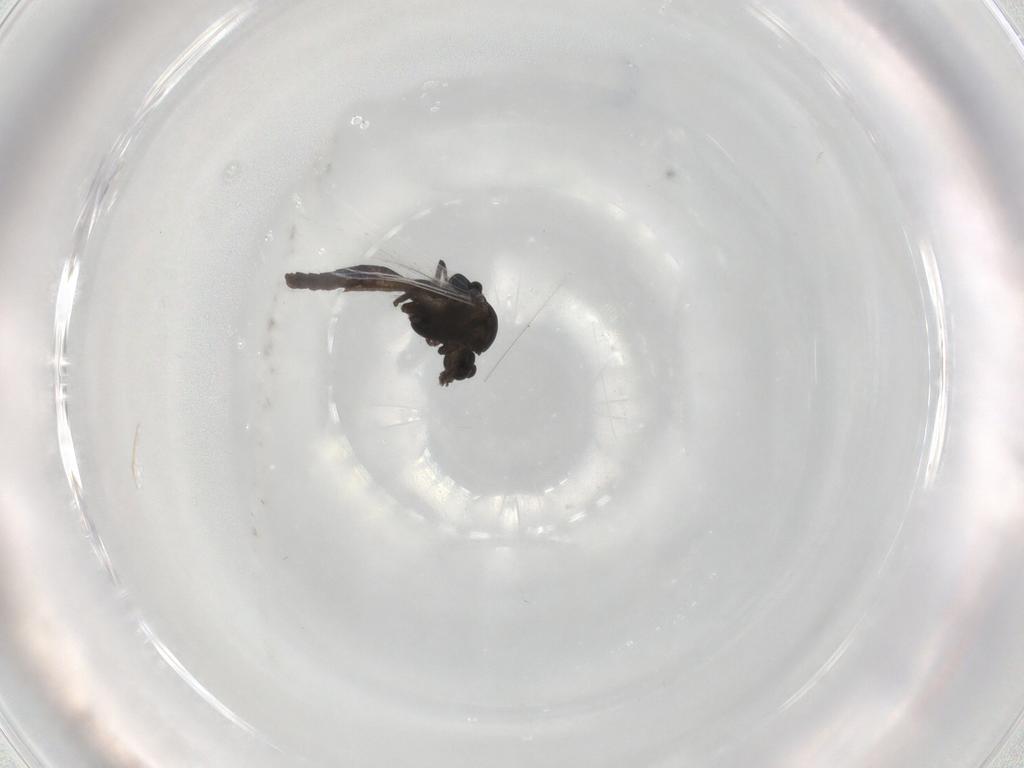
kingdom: Animalia
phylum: Arthropoda
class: Insecta
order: Diptera
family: Chironomidae
